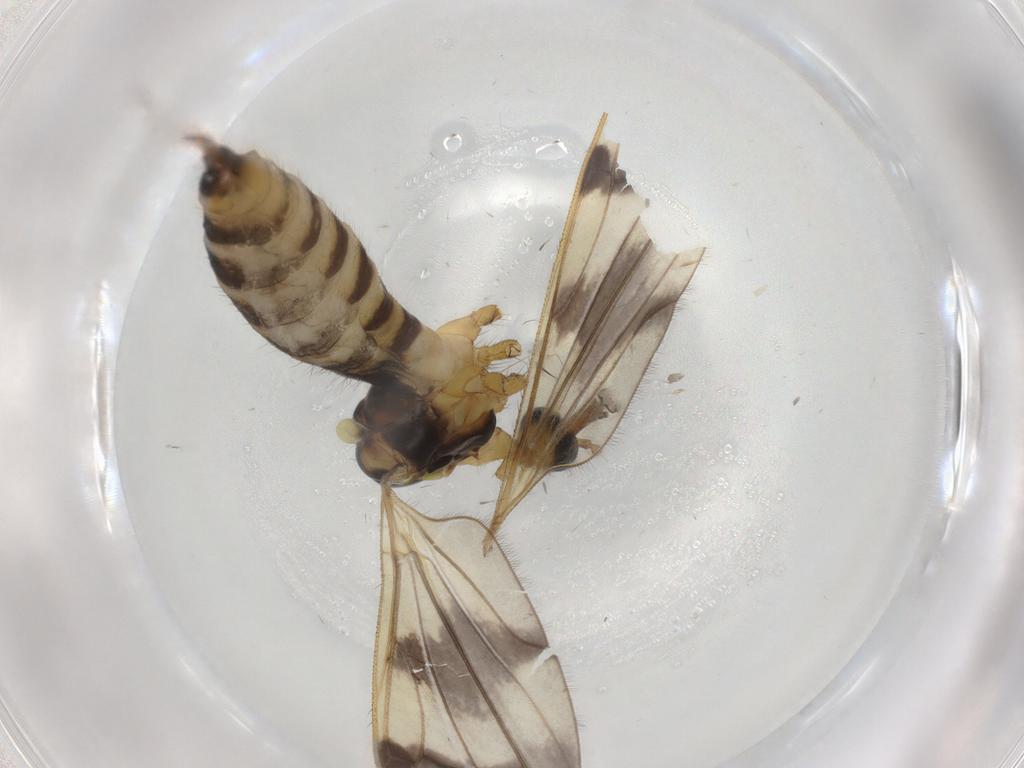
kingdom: Animalia
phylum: Arthropoda
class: Insecta
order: Diptera
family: Limoniidae
